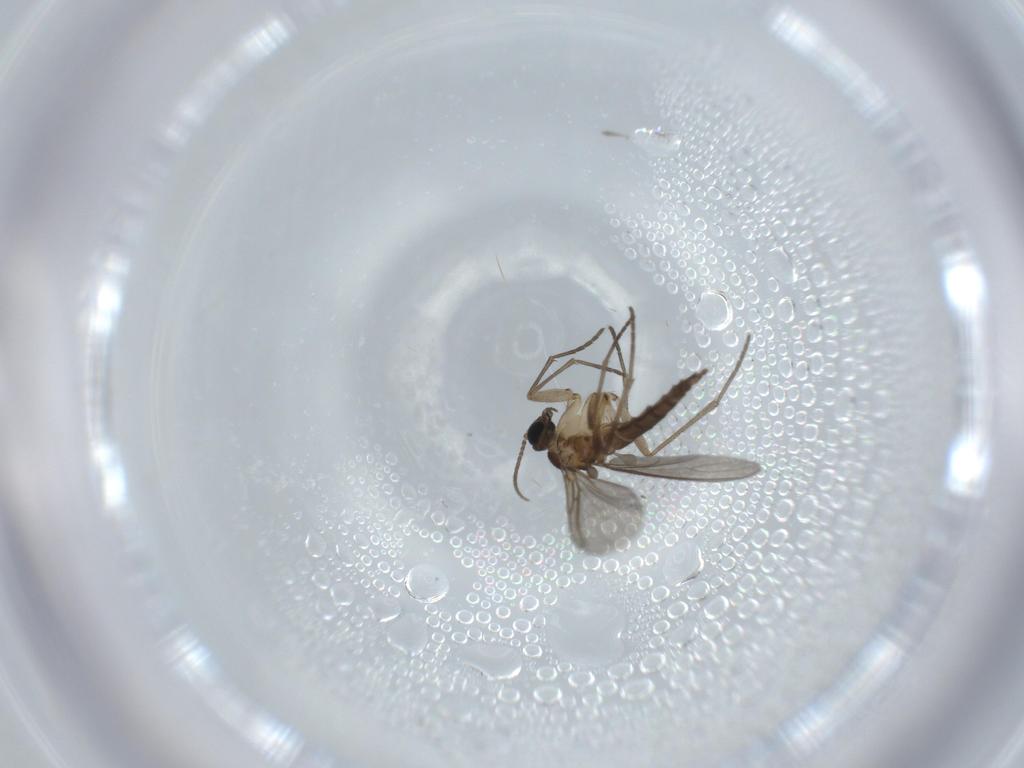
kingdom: Animalia
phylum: Arthropoda
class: Insecta
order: Diptera
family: Sciaridae
